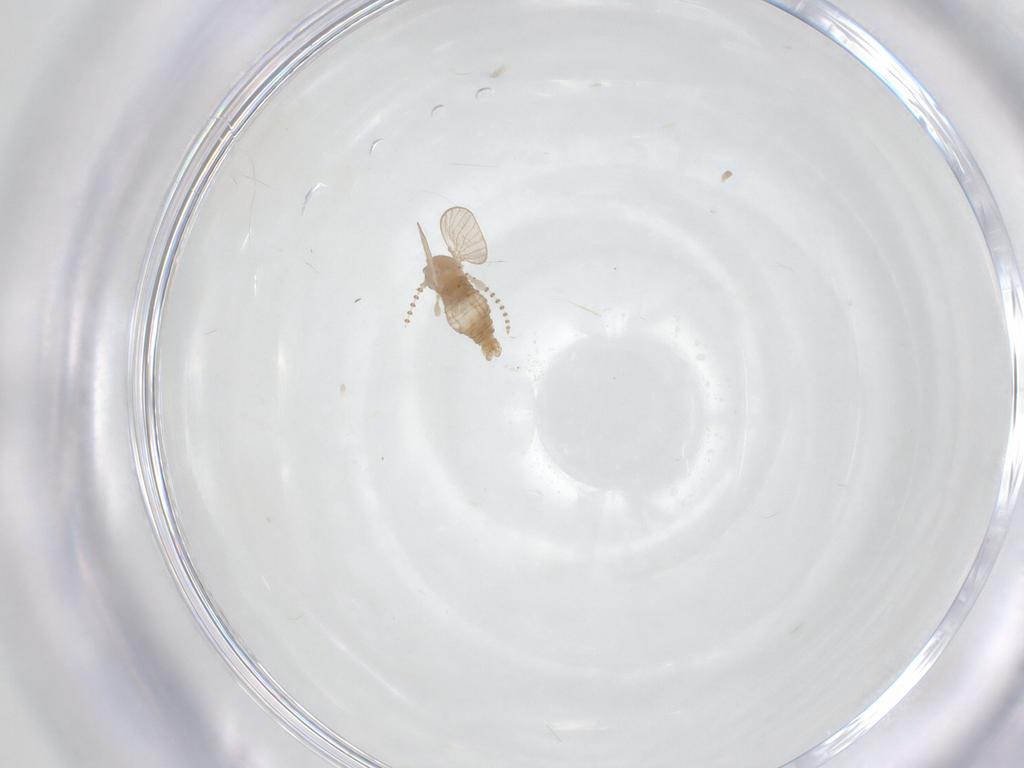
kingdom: Animalia
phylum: Arthropoda
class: Insecta
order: Diptera
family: Psychodidae
